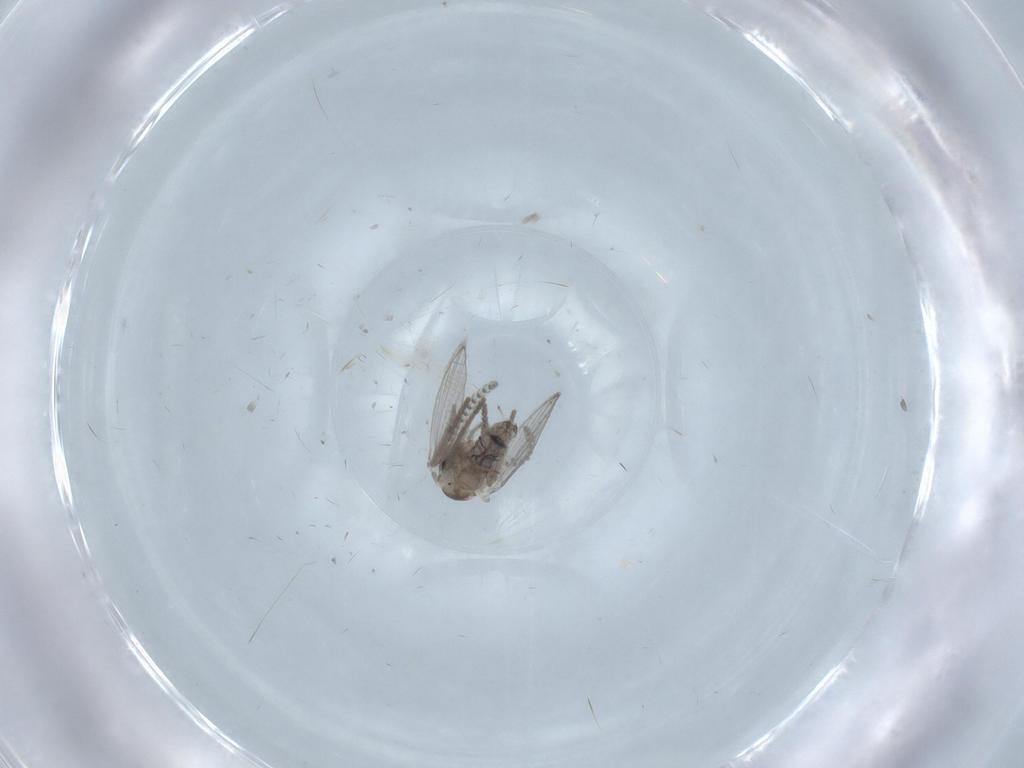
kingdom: Animalia
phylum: Arthropoda
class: Insecta
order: Diptera
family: Psychodidae
